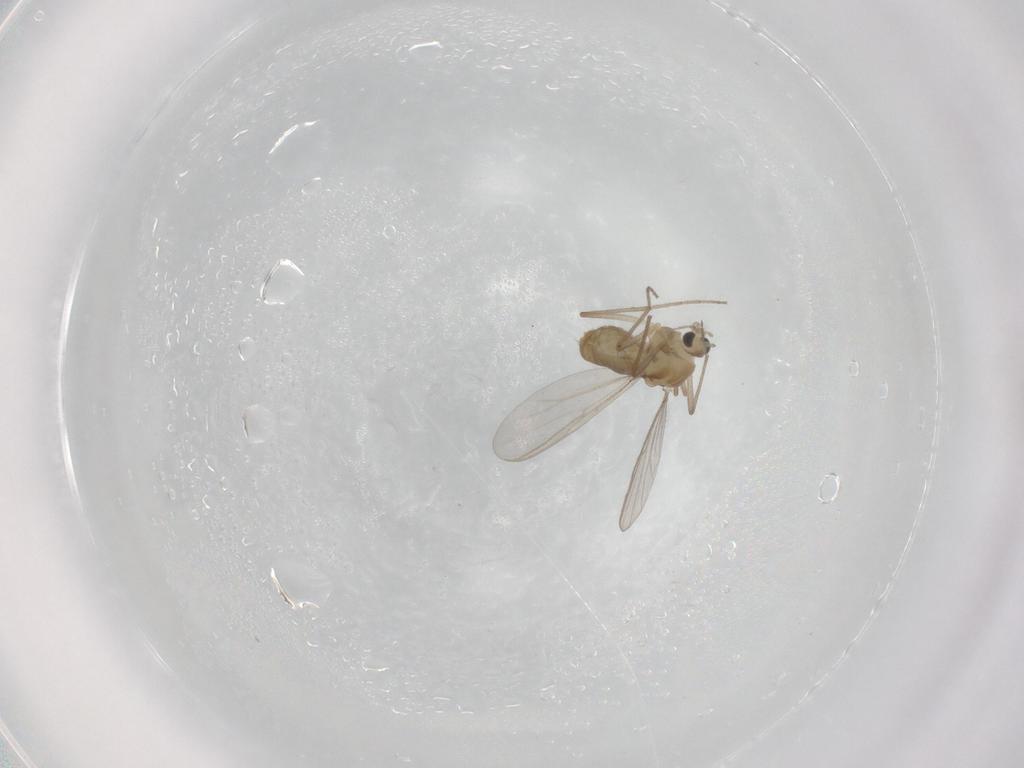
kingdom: Animalia
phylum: Arthropoda
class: Insecta
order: Diptera
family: Chironomidae
